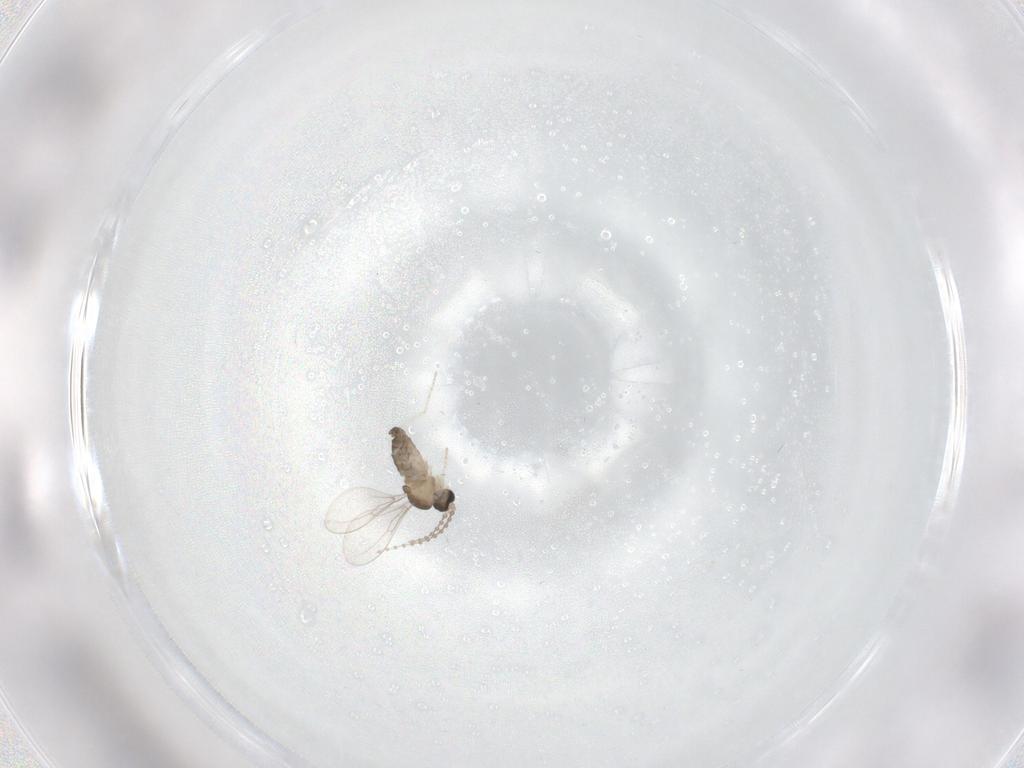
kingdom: Animalia
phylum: Arthropoda
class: Insecta
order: Diptera
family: Cecidomyiidae
